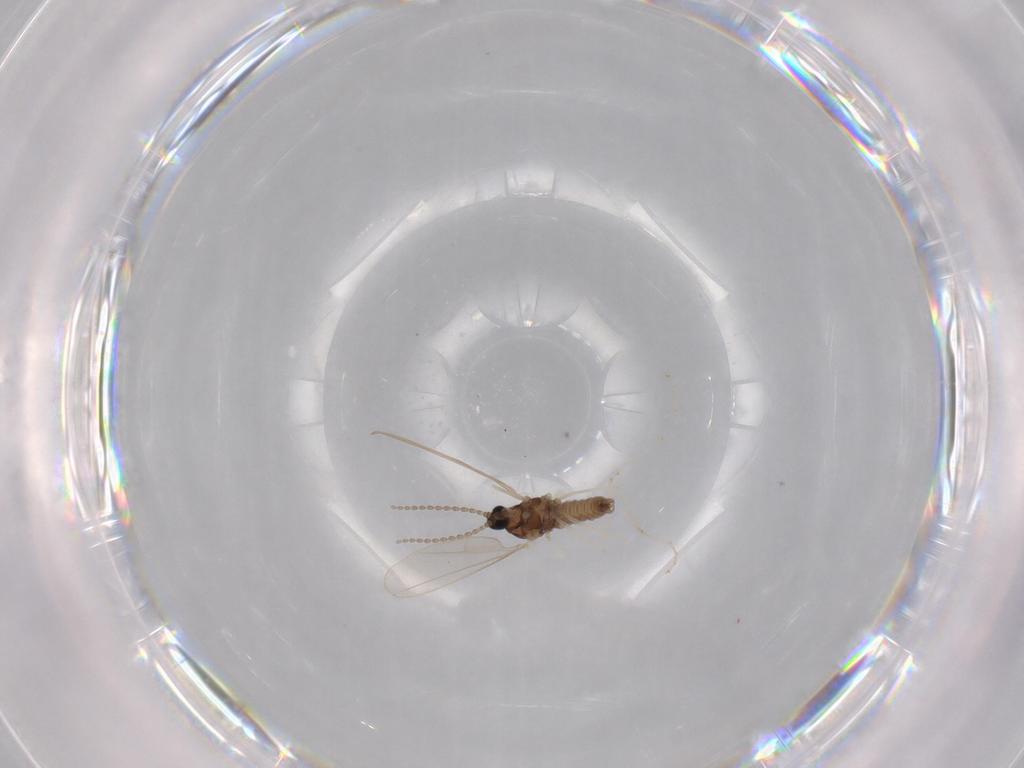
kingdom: Animalia
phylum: Arthropoda
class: Insecta
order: Diptera
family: Cecidomyiidae
